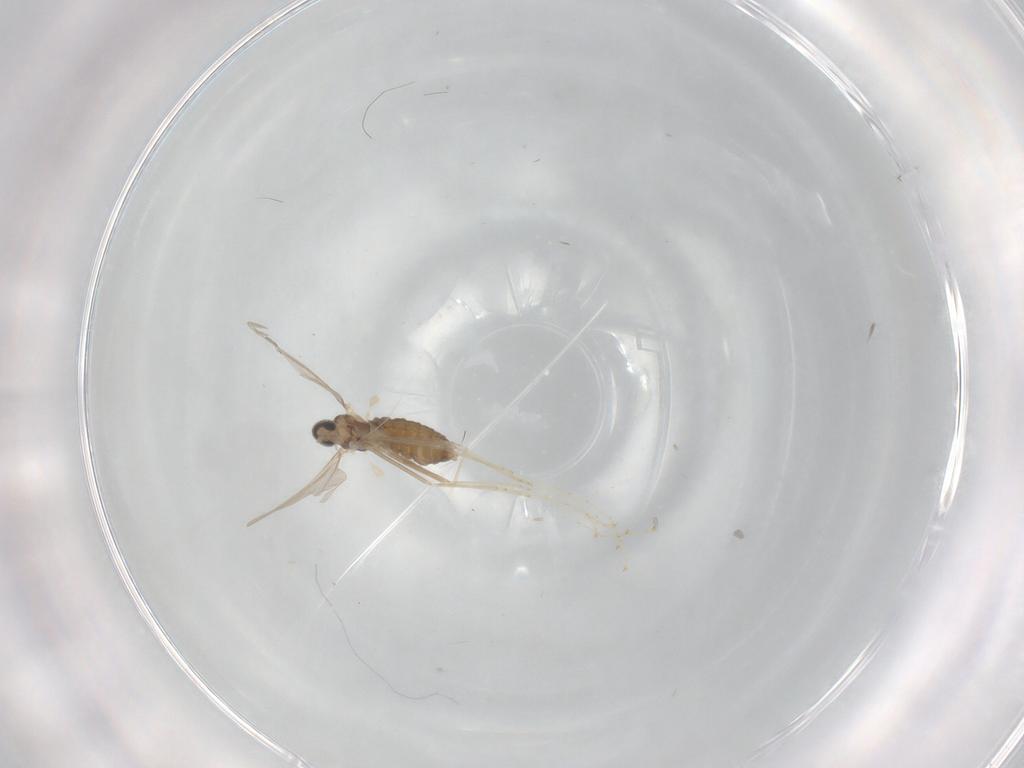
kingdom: Animalia
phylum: Arthropoda
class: Insecta
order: Diptera
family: Cecidomyiidae
